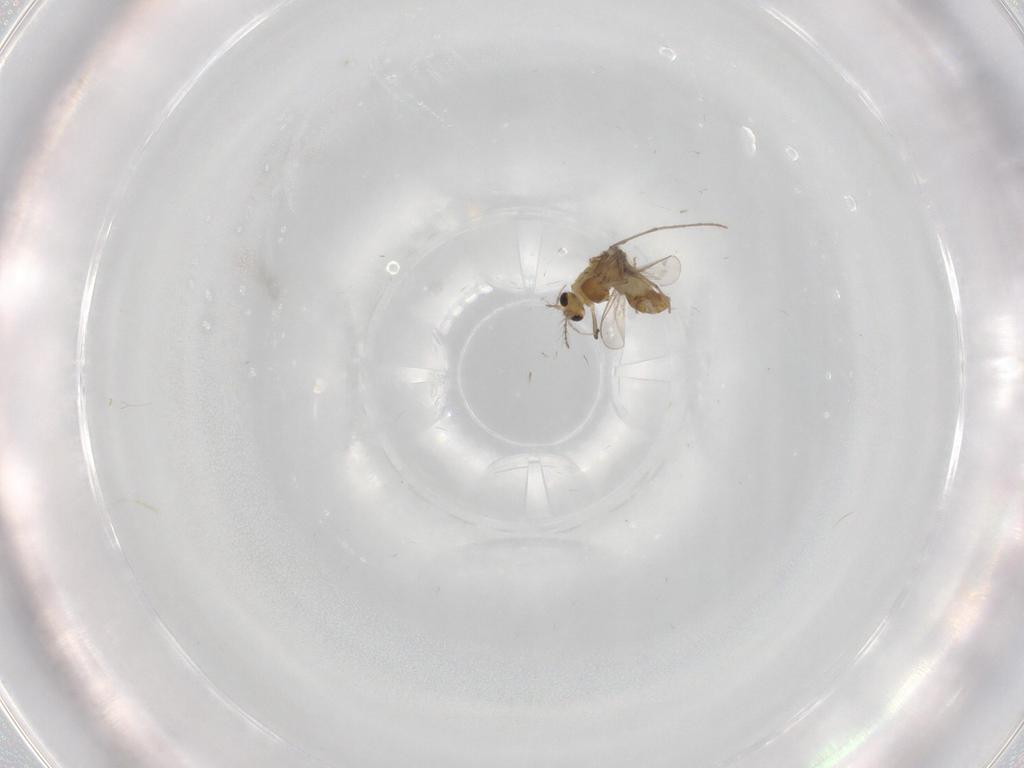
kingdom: Animalia
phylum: Arthropoda
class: Insecta
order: Diptera
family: Chironomidae
